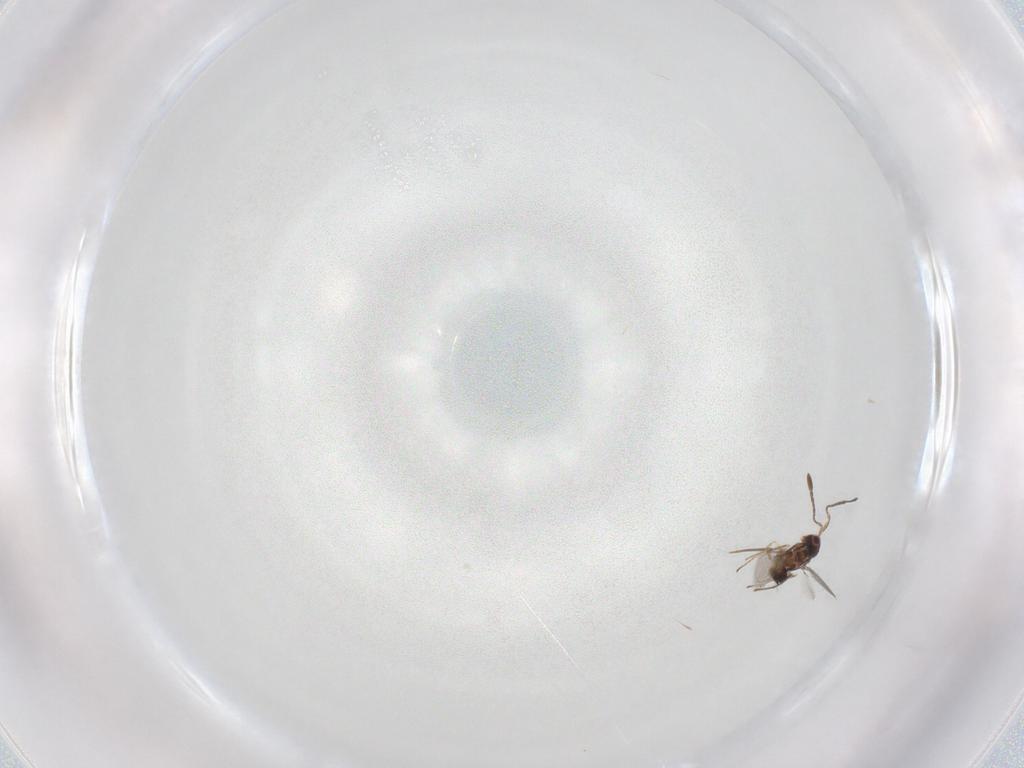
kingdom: Animalia
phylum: Arthropoda
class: Insecta
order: Hymenoptera
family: Mymaridae
